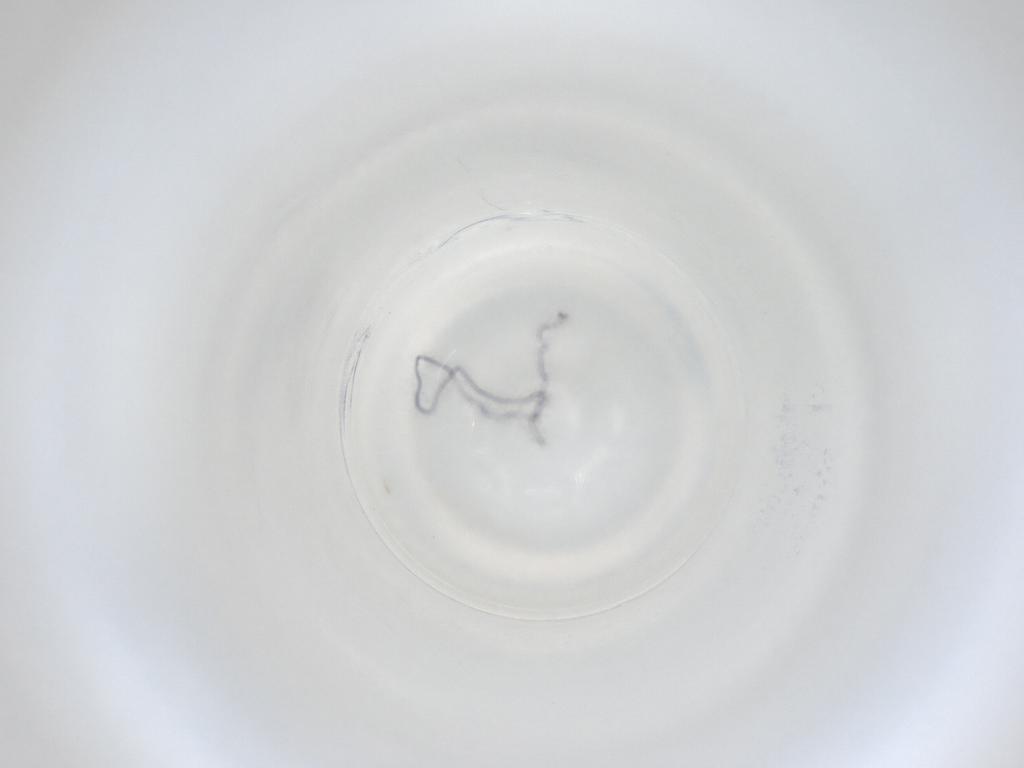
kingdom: Animalia
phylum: Arthropoda
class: Insecta
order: Diptera
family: Cecidomyiidae
